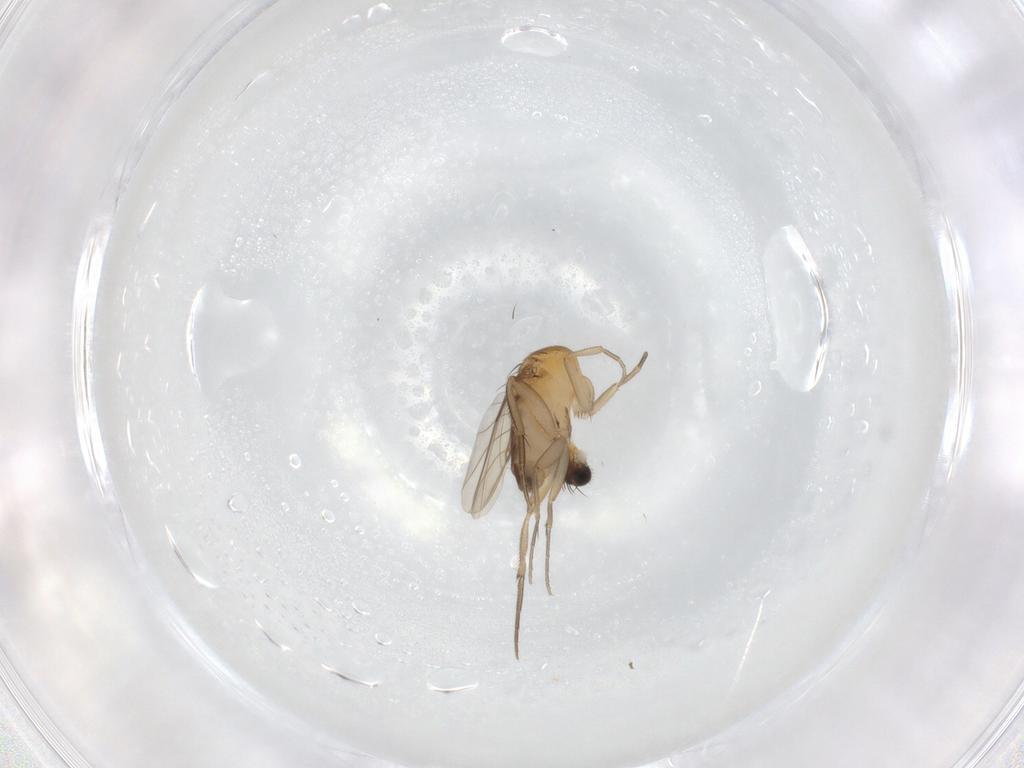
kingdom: Animalia
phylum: Arthropoda
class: Insecta
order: Diptera
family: Phoridae
